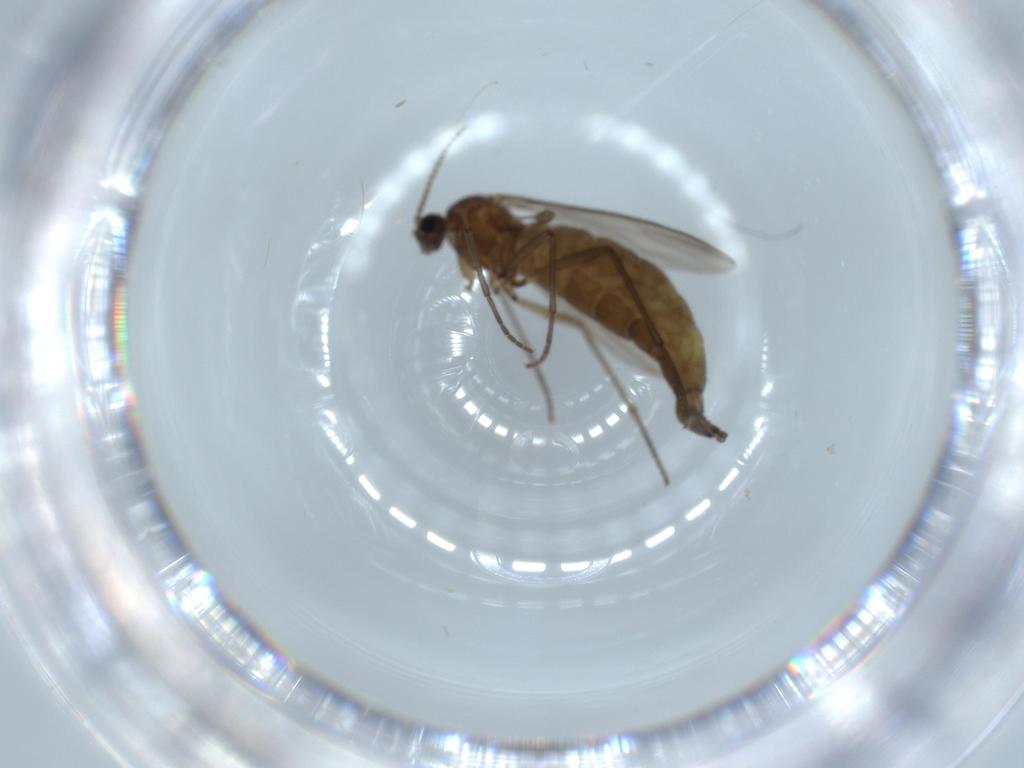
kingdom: Animalia
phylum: Arthropoda
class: Insecta
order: Diptera
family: Sciaridae
